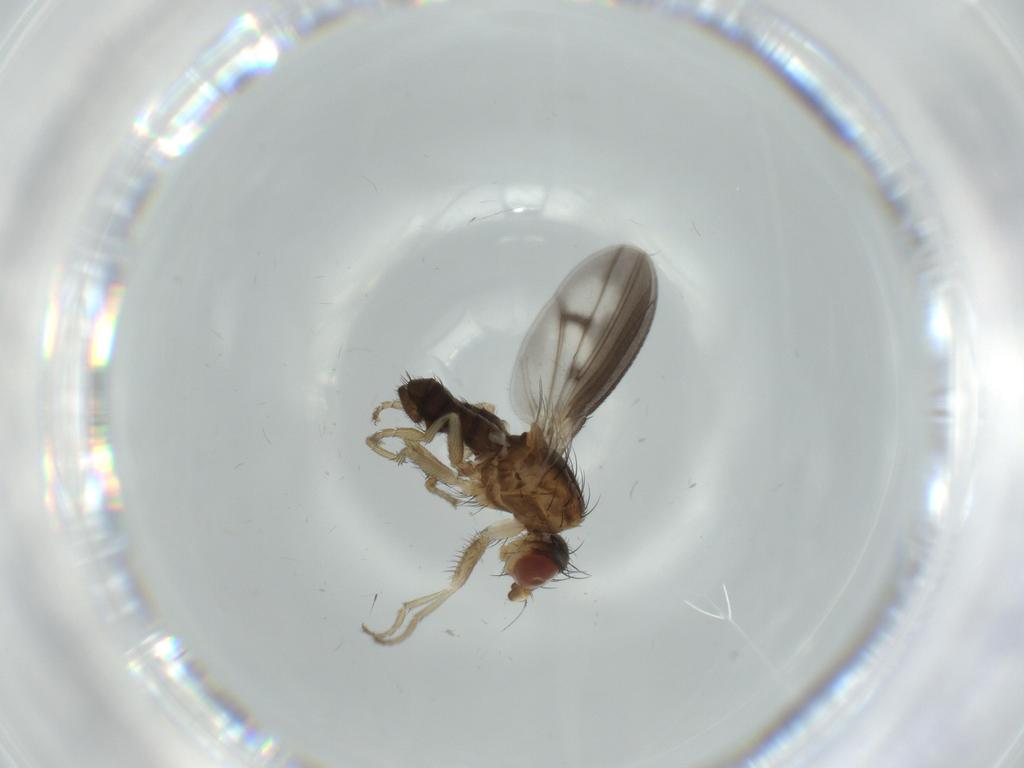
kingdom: Animalia
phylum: Arthropoda
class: Insecta
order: Diptera
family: Heleomyzidae
